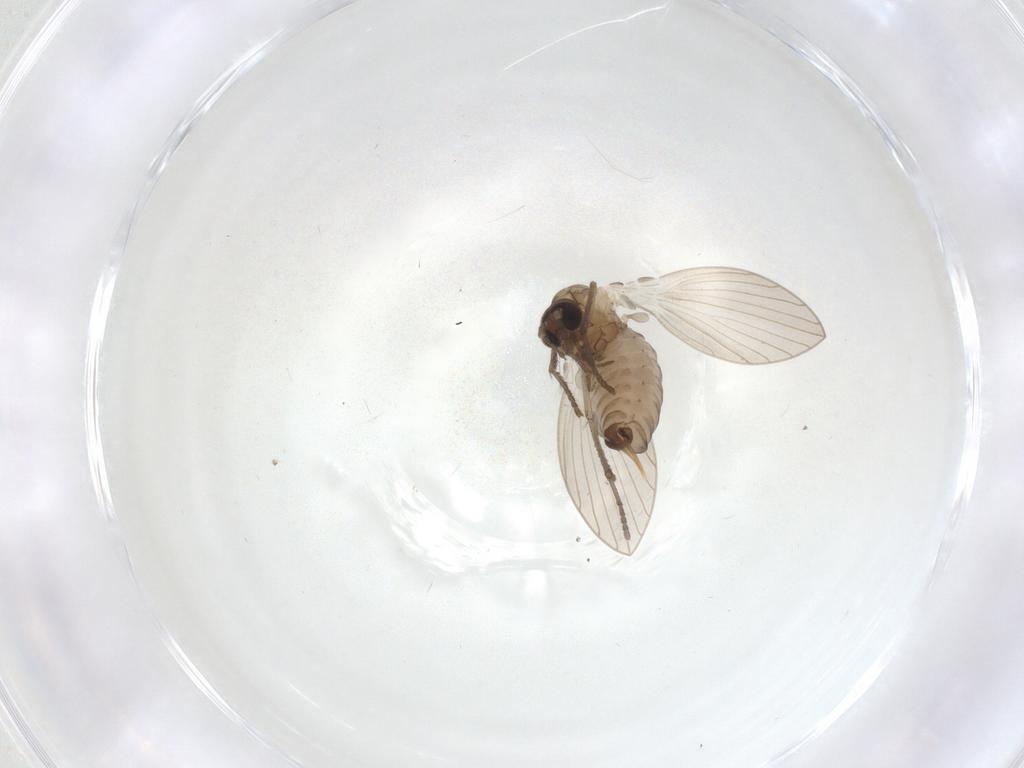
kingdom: Animalia
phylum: Arthropoda
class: Insecta
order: Diptera
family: Psychodidae
